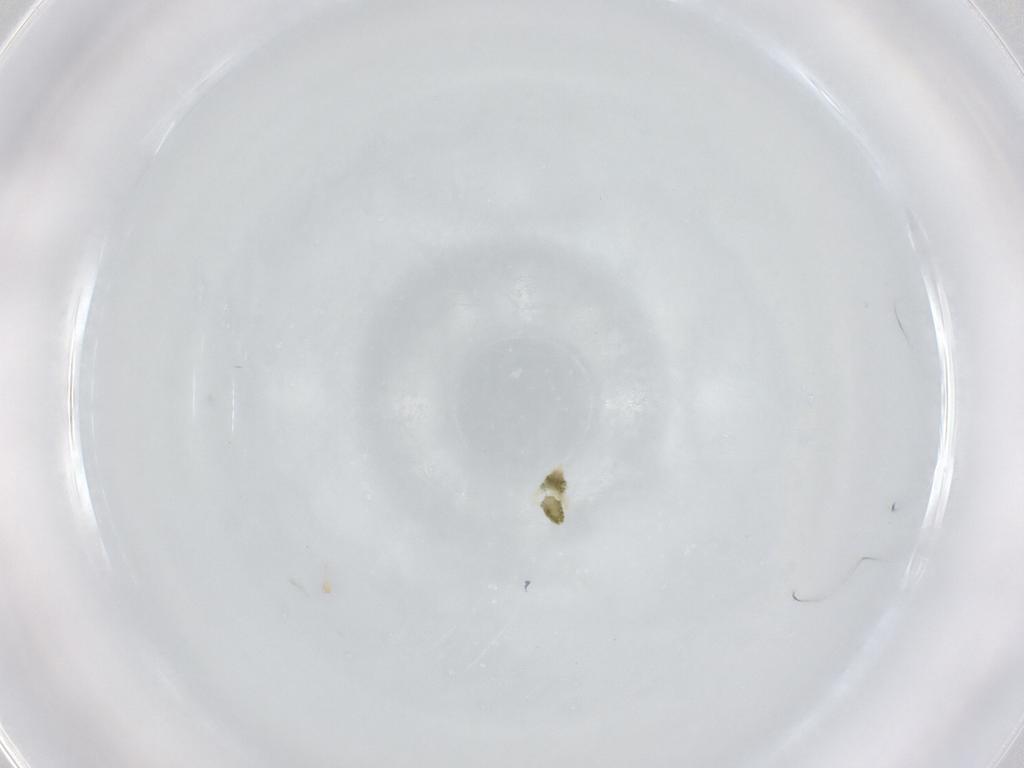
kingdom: Animalia
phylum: Arthropoda
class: Arachnida
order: Trombidiformes
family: Eupodidae
